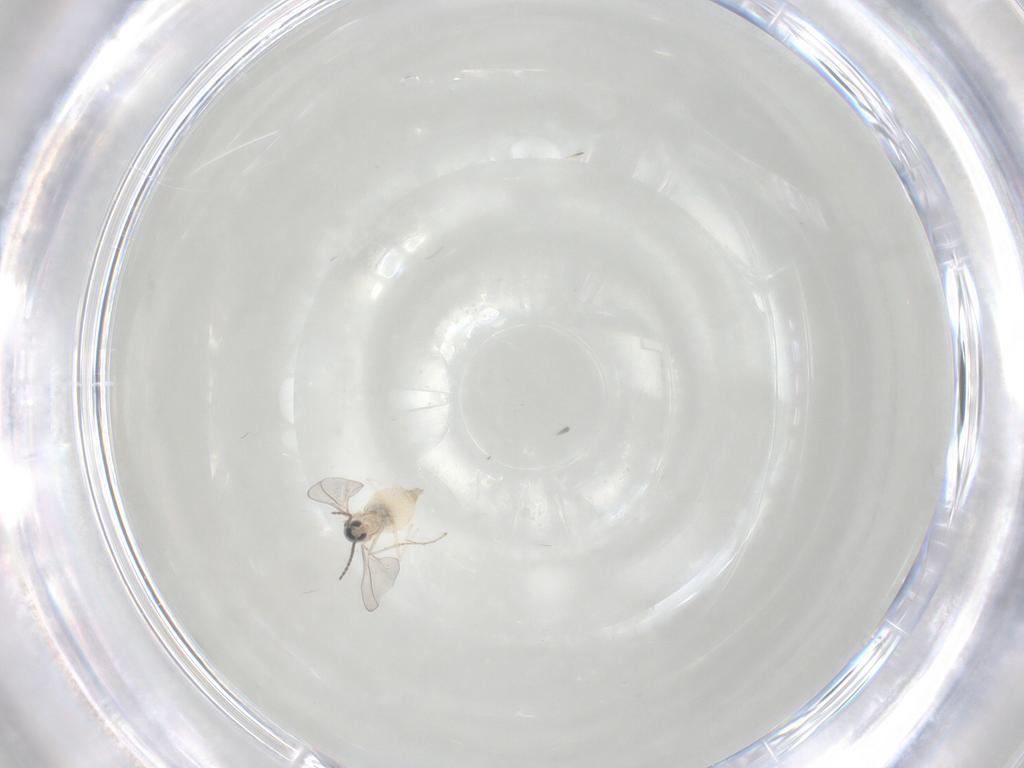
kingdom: Animalia
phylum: Arthropoda
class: Insecta
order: Diptera
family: Cecidomyiidae
